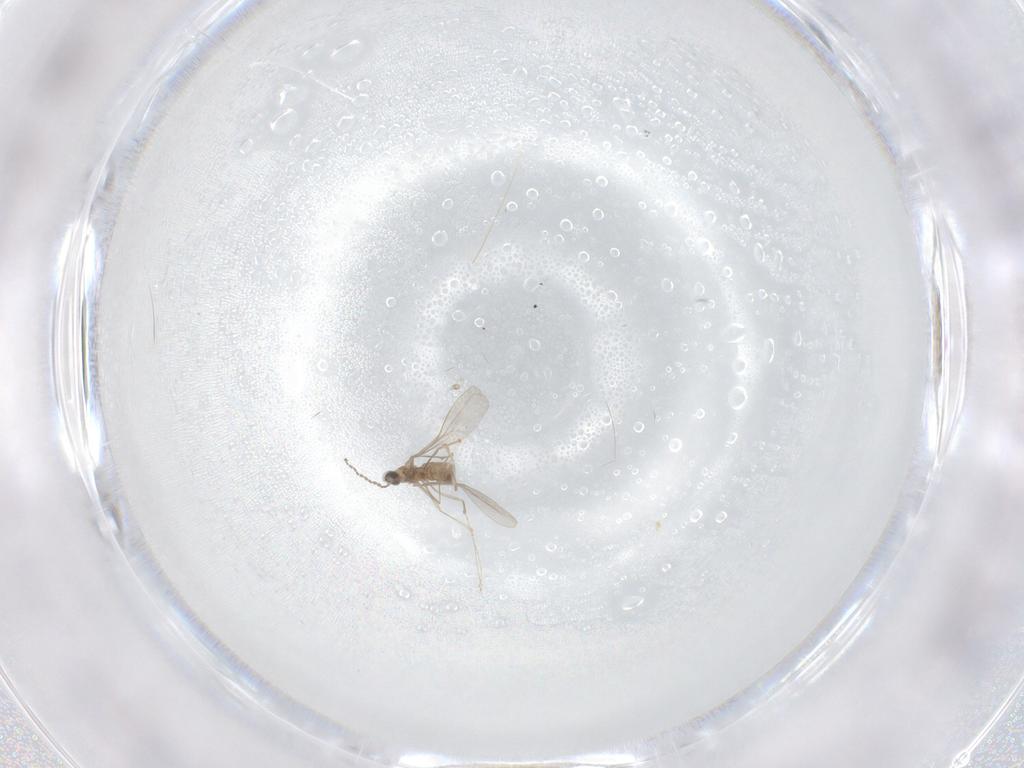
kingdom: Animalia
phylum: Arthropoda
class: Insecta
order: Diptera
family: Cecidomyiidae
